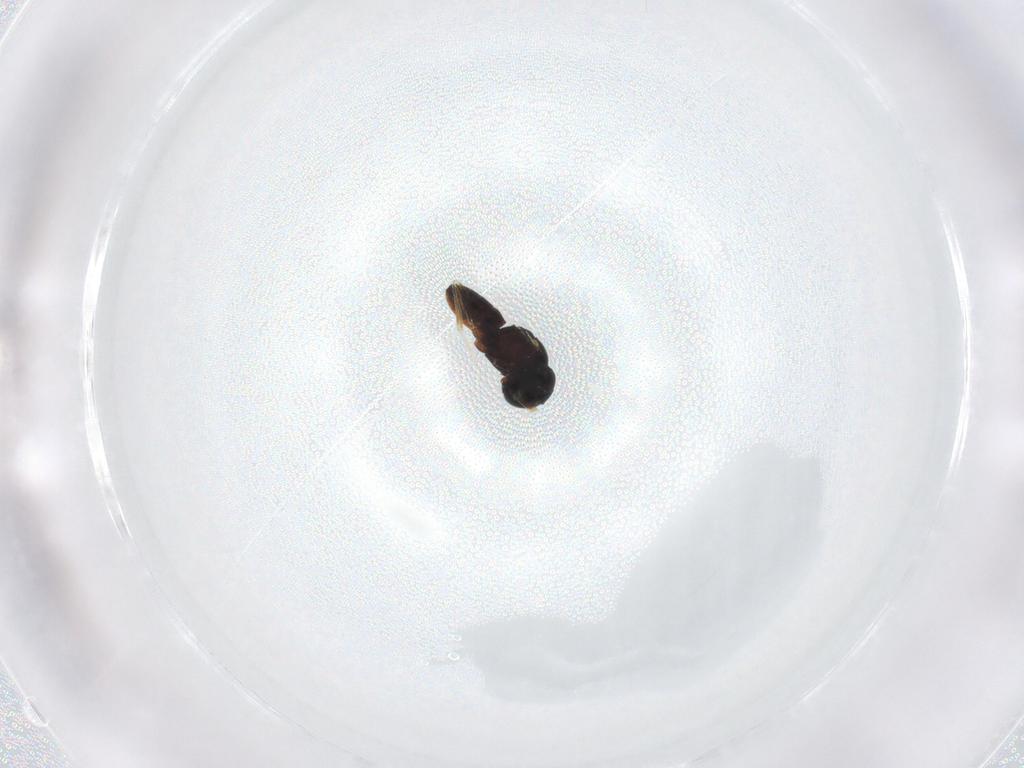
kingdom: Animalia
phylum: Arthropoda
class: Insecta
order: Hymenoptera
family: Scelionidae
